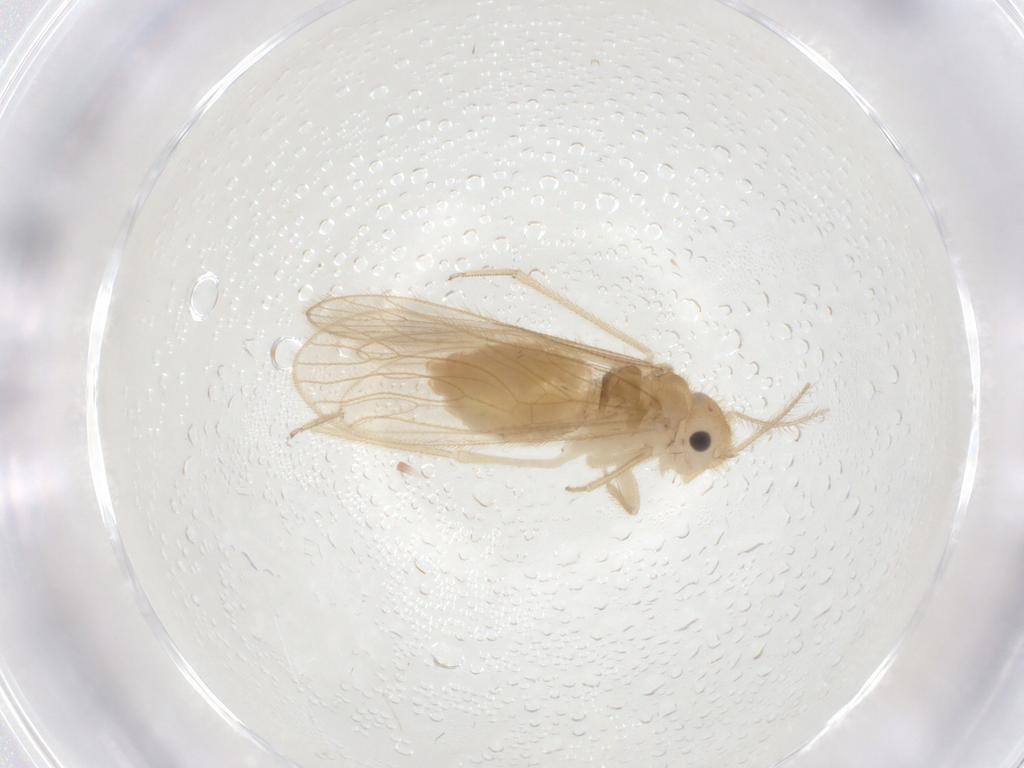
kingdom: Animalia
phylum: Arthropoda
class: Insecta
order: Psocodea
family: Cladiopsocidae
